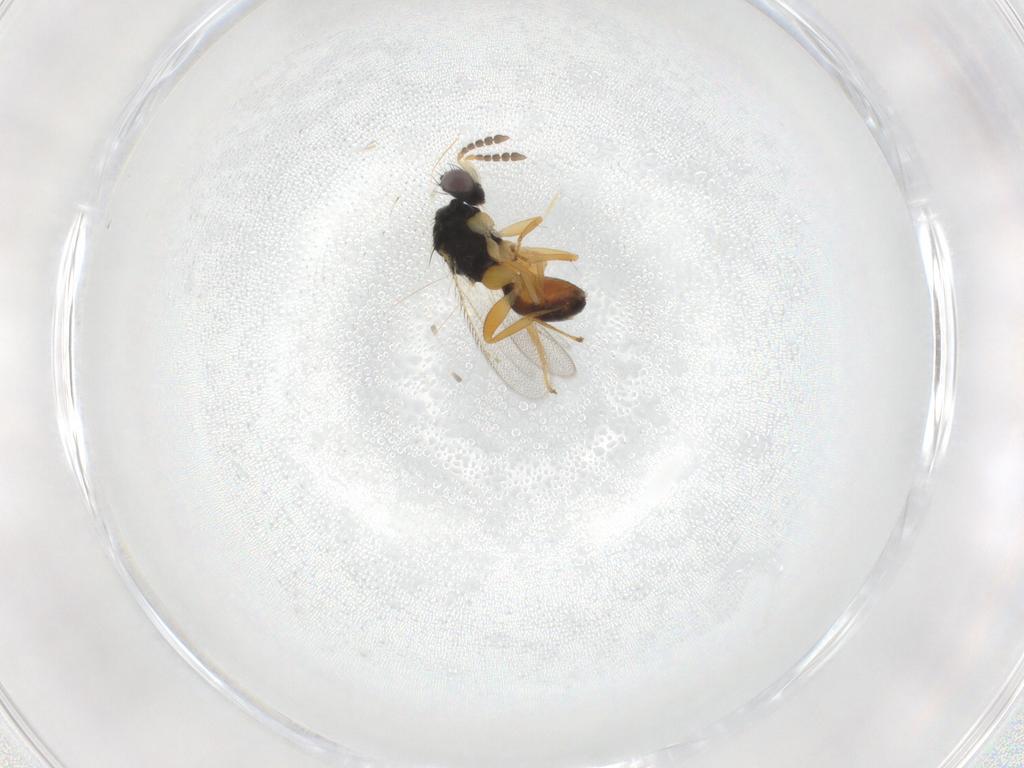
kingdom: Animalia
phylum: Arthropoda
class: Insecta
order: Hymenoptera
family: Eulophidae
